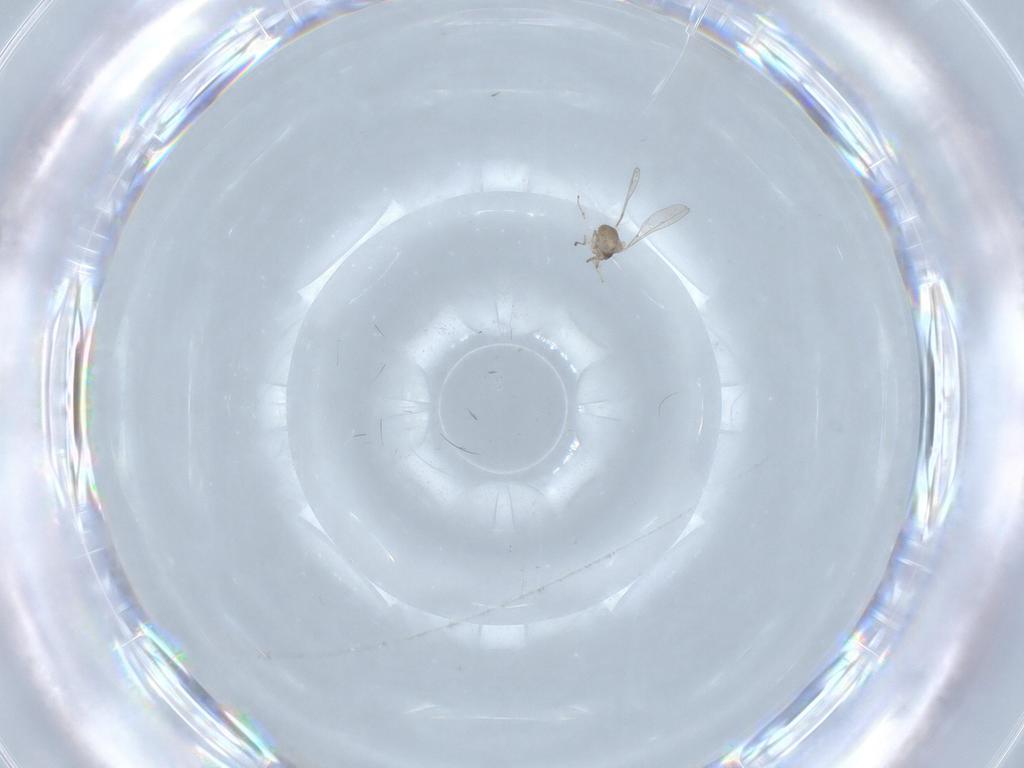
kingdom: Animalia
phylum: Arthropoda
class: Insecta
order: Diptera
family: Cecidomyiidae
